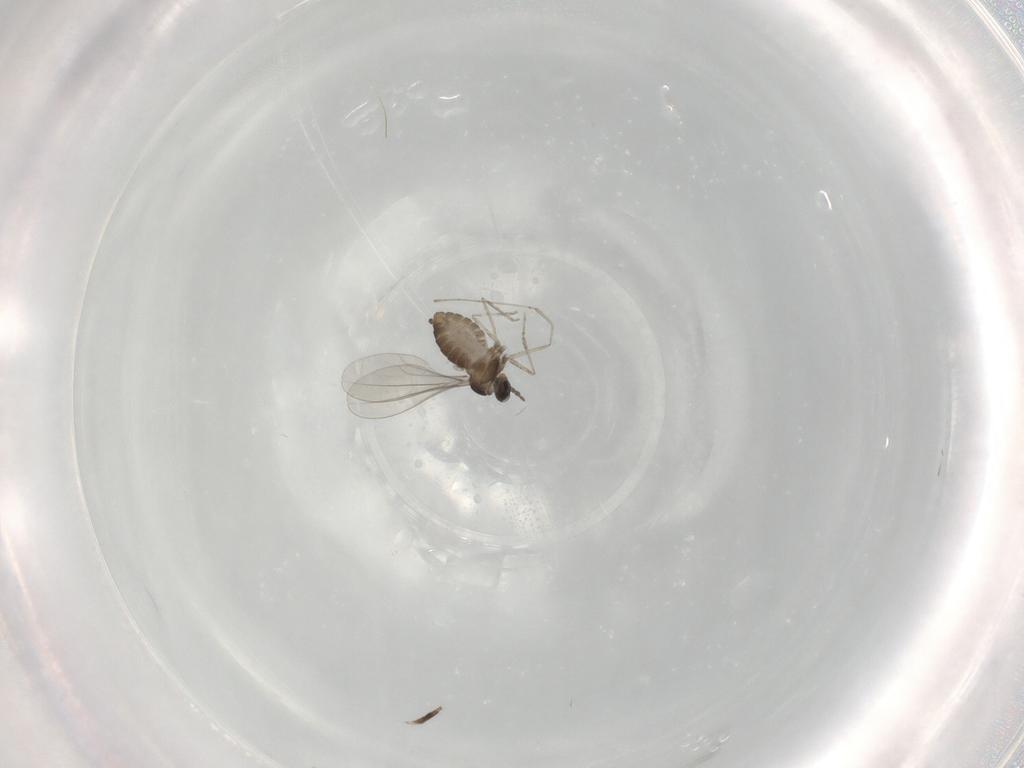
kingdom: Animalia
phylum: Arthropoda
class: Insecta
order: Diptera
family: Cecidomyiidae
